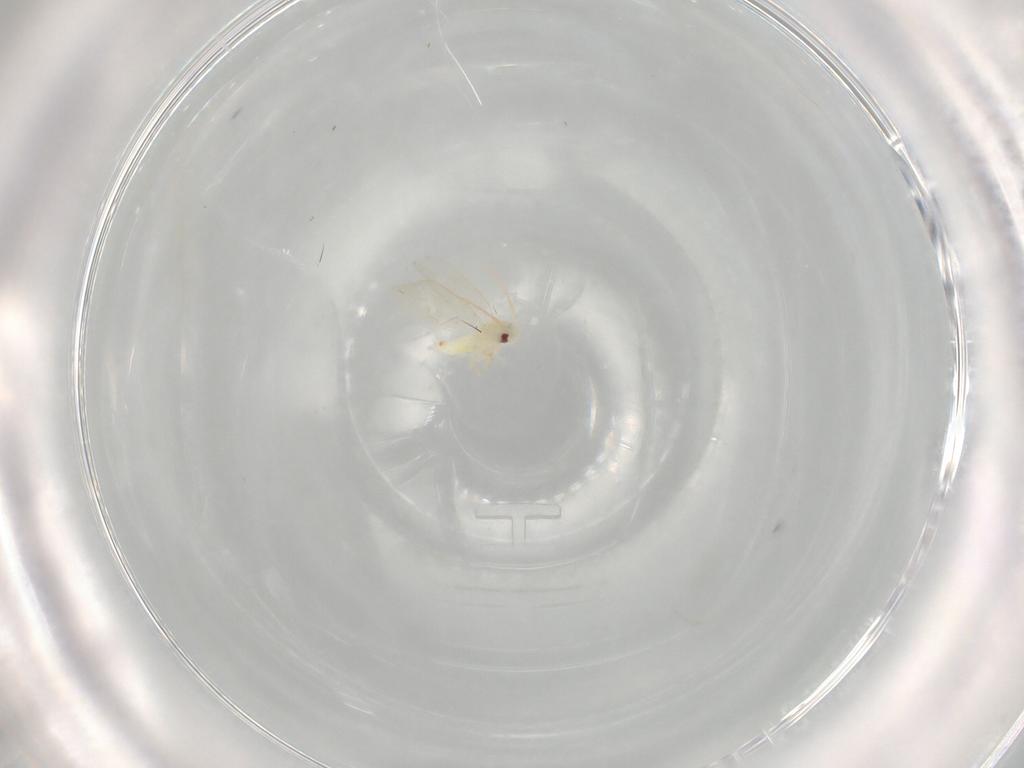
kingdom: Animalia
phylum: Arthropoda
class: Insecta
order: Hemiptera
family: Aleyrodidae
